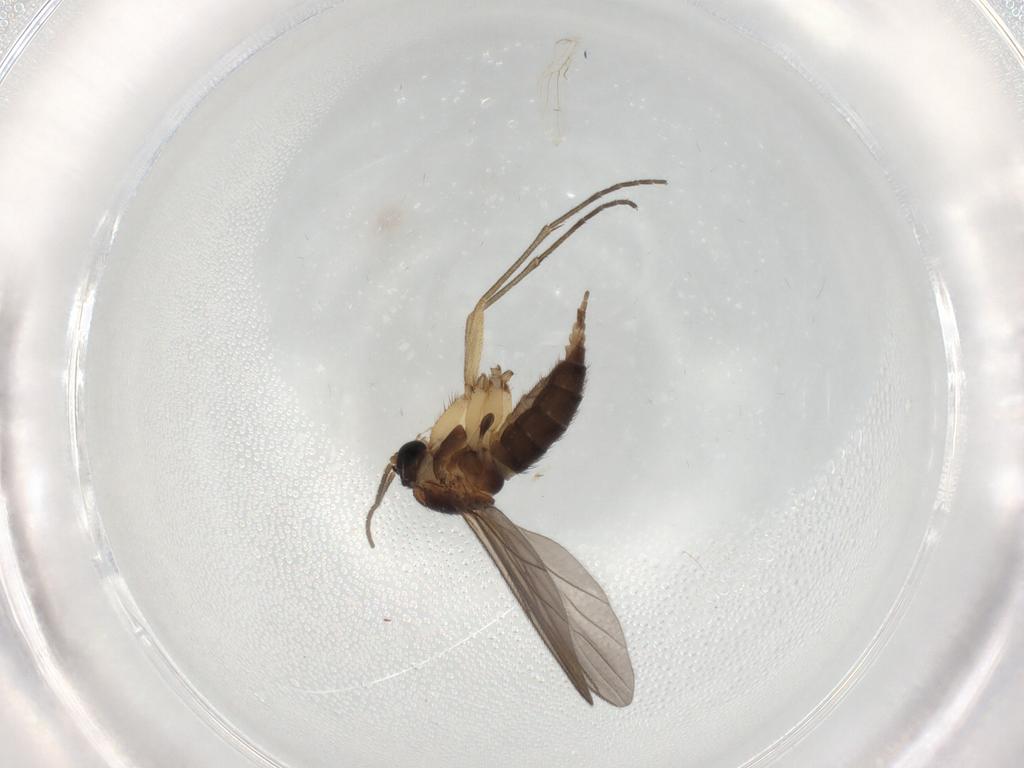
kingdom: Animalia
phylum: Arthropoda
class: Insecta
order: Diptera
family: Sciaridae
